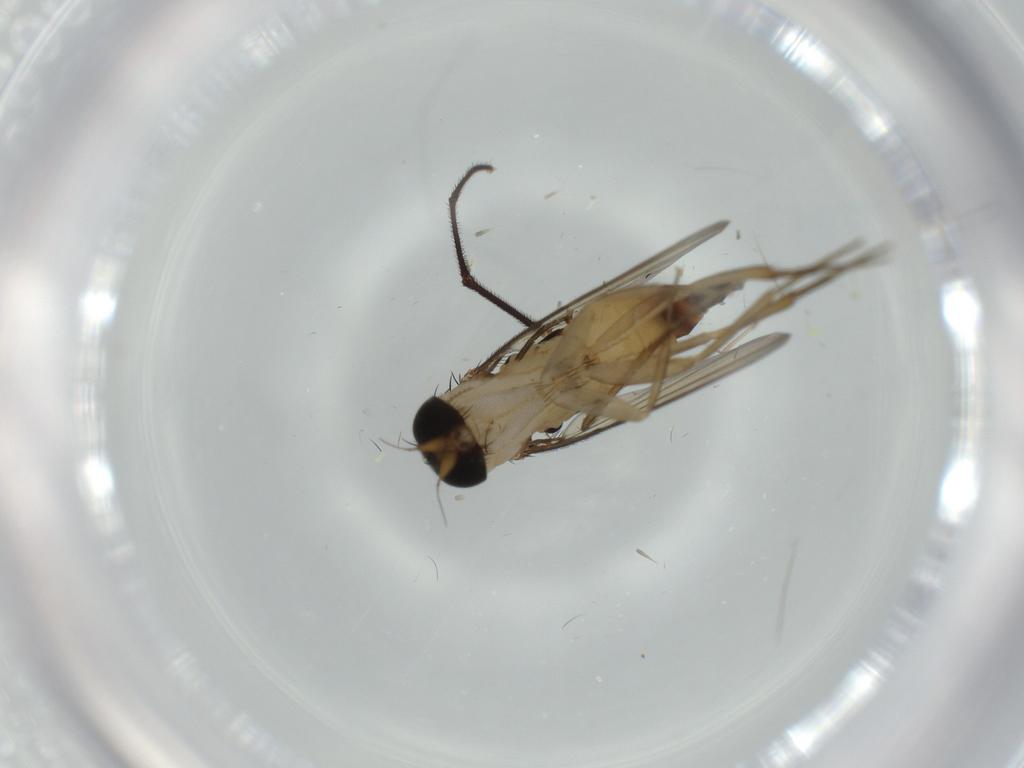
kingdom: Animalia
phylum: Arthropoda
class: Insecta
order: Diptera
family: Phoridae
